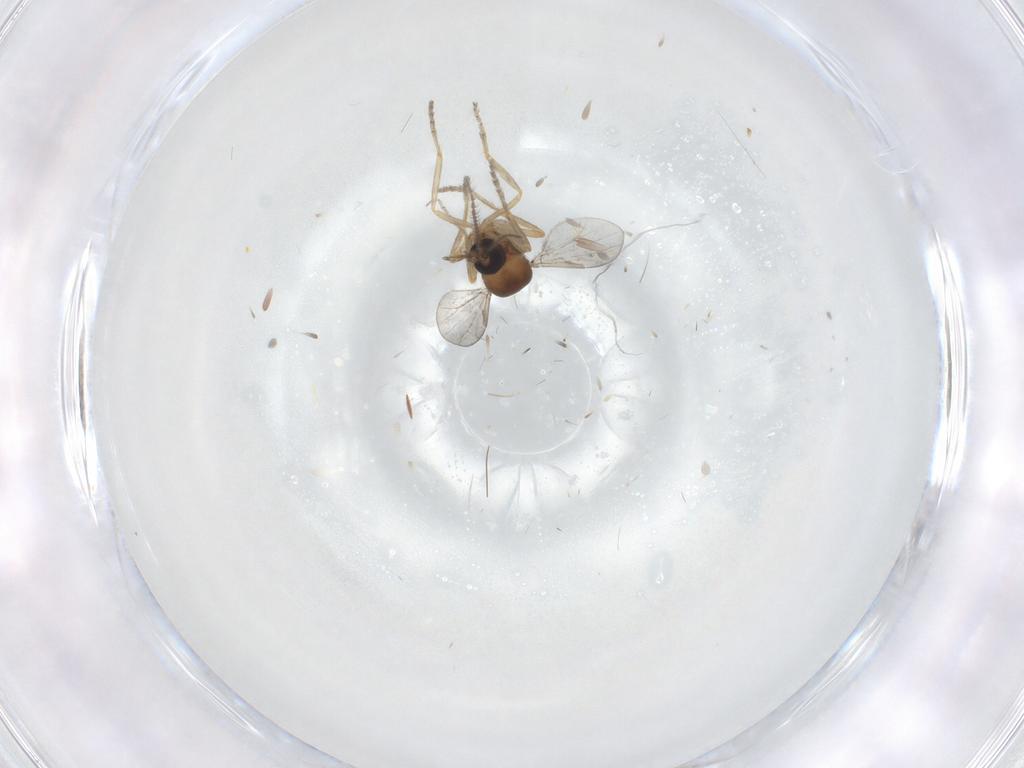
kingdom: Animalia
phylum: Arthropoda
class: Insecta
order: Diptera
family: Ceratopogonidae
